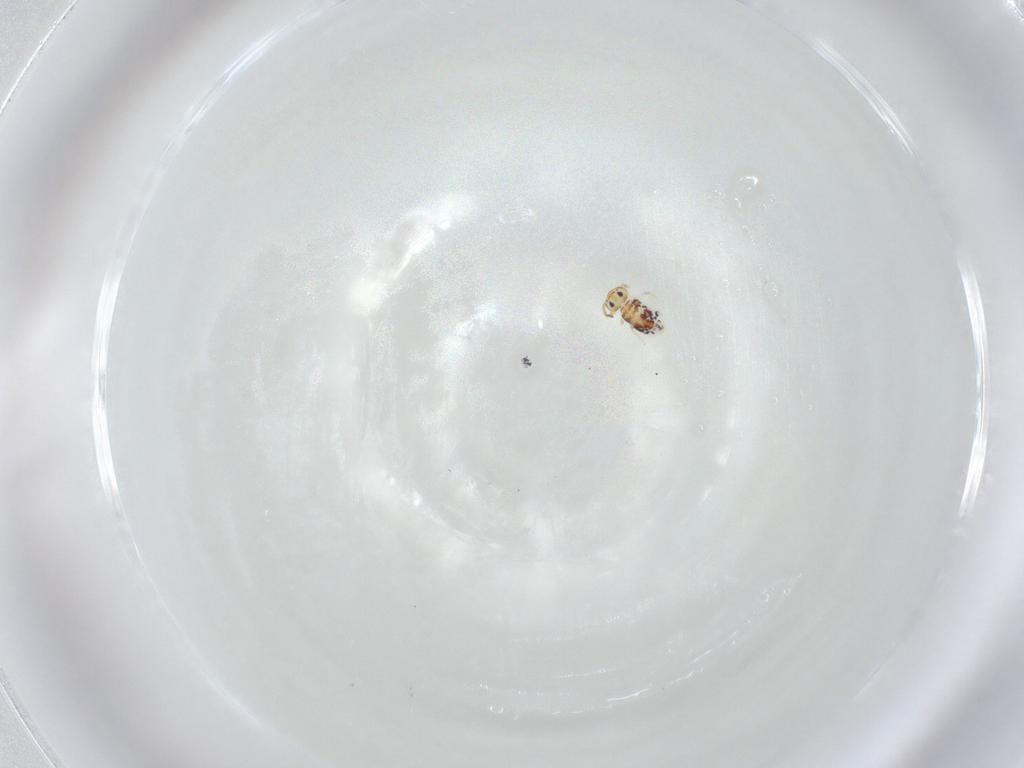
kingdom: Animalia
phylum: Arthropoda
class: Collembola
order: Symphypleona
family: Bourletiellidae
